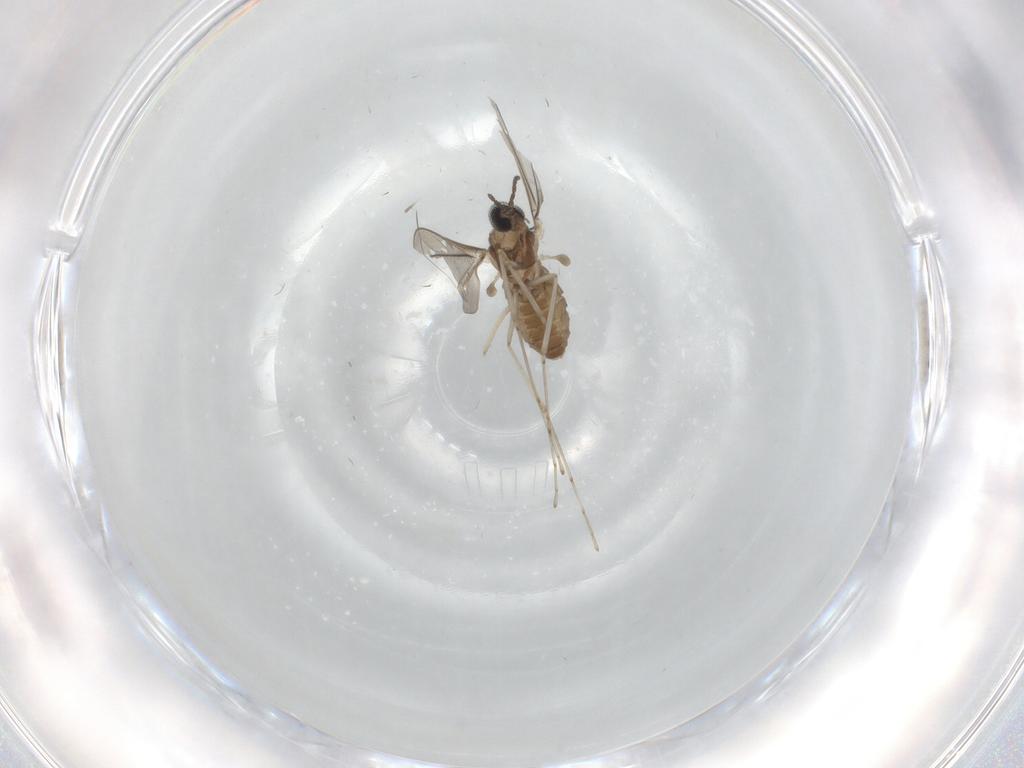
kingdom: Animalia
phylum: Arthropoda
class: Insecta
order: Diptera
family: Cecidomyiidae
